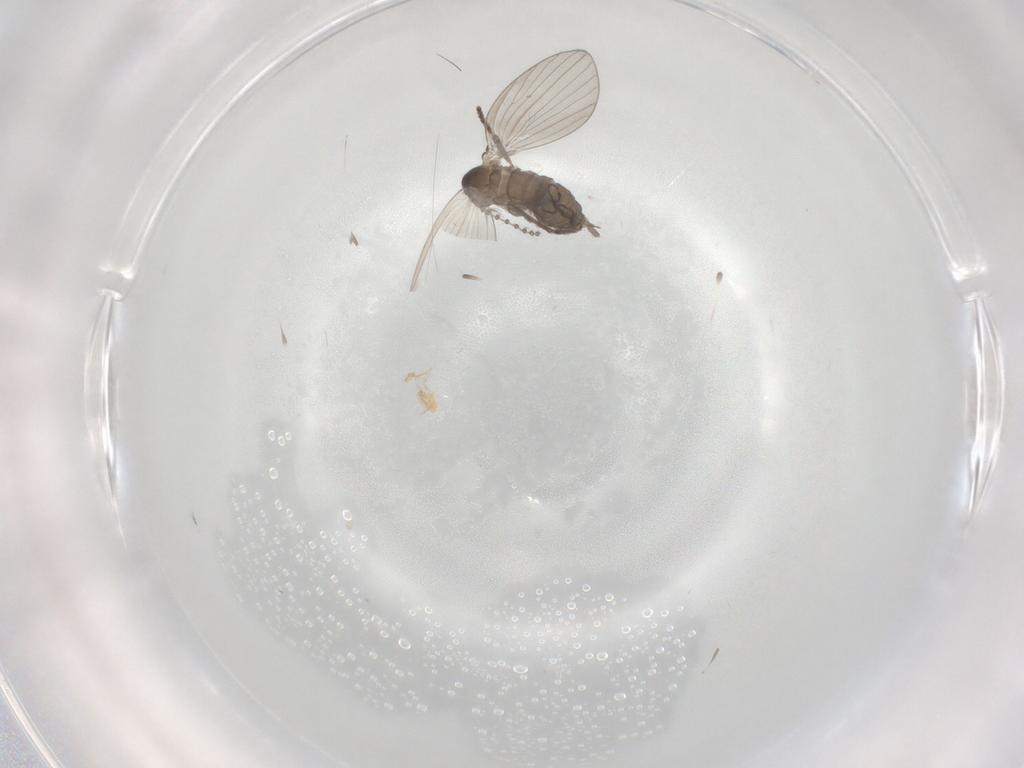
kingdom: Animalia
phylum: Arthropoda
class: Insecta
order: Diptera
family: Psychodidae
